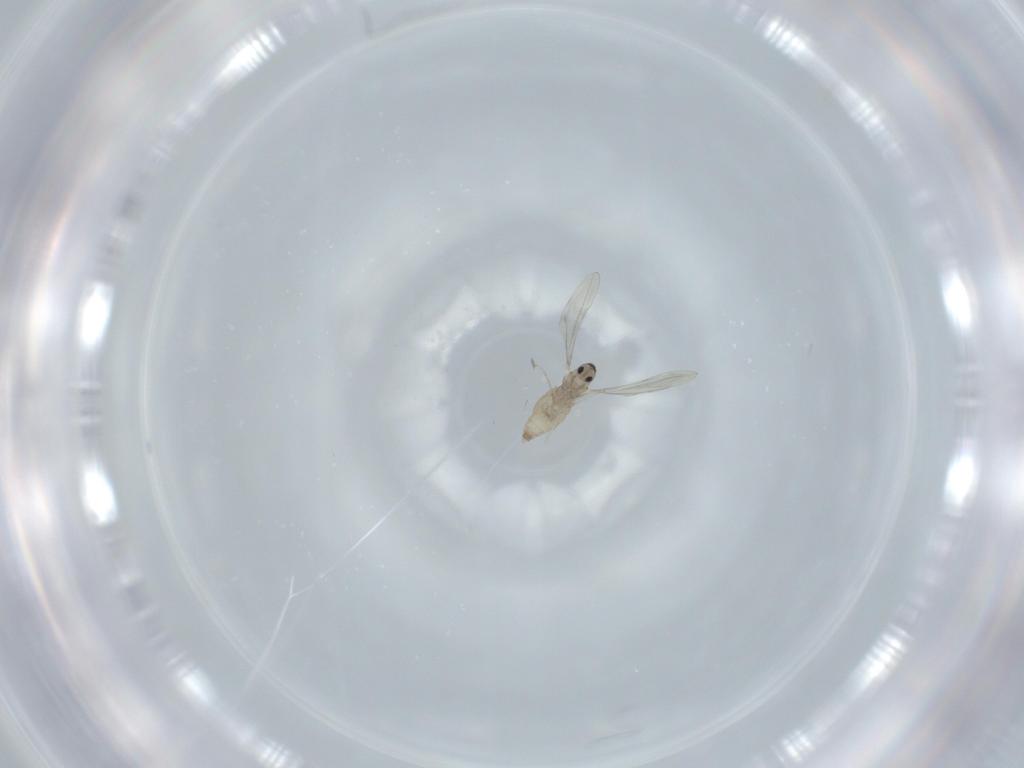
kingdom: Animalia
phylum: Arthropoda
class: Insecta
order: Diptera
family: Cecidomyiidae
